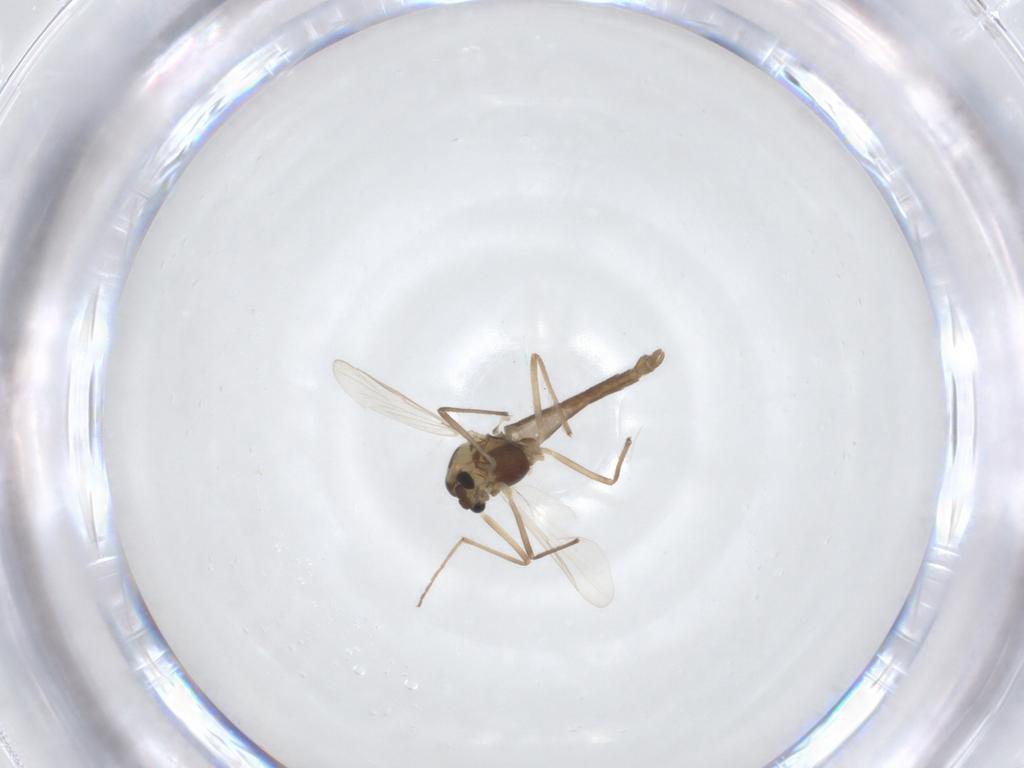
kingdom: Animalia
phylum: Arthropoda
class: Insecta
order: Diptera
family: Chironomidae
